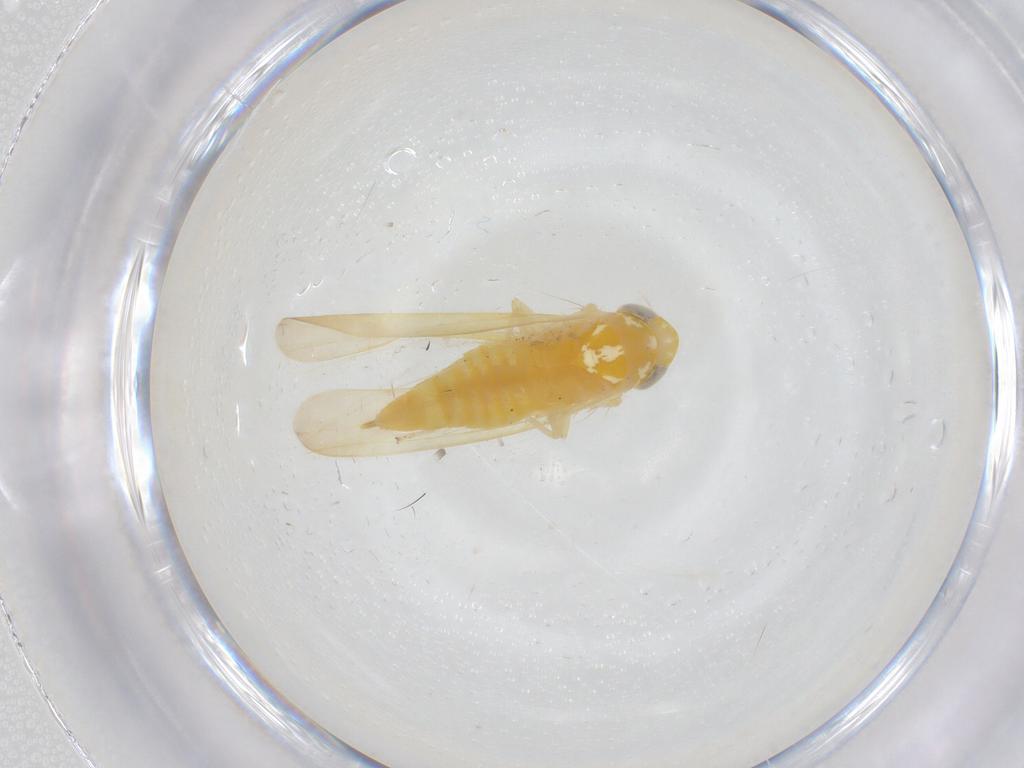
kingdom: Animalia
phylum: Arthropoda
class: Insecta
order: Hemiptera
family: Cicadellidae
